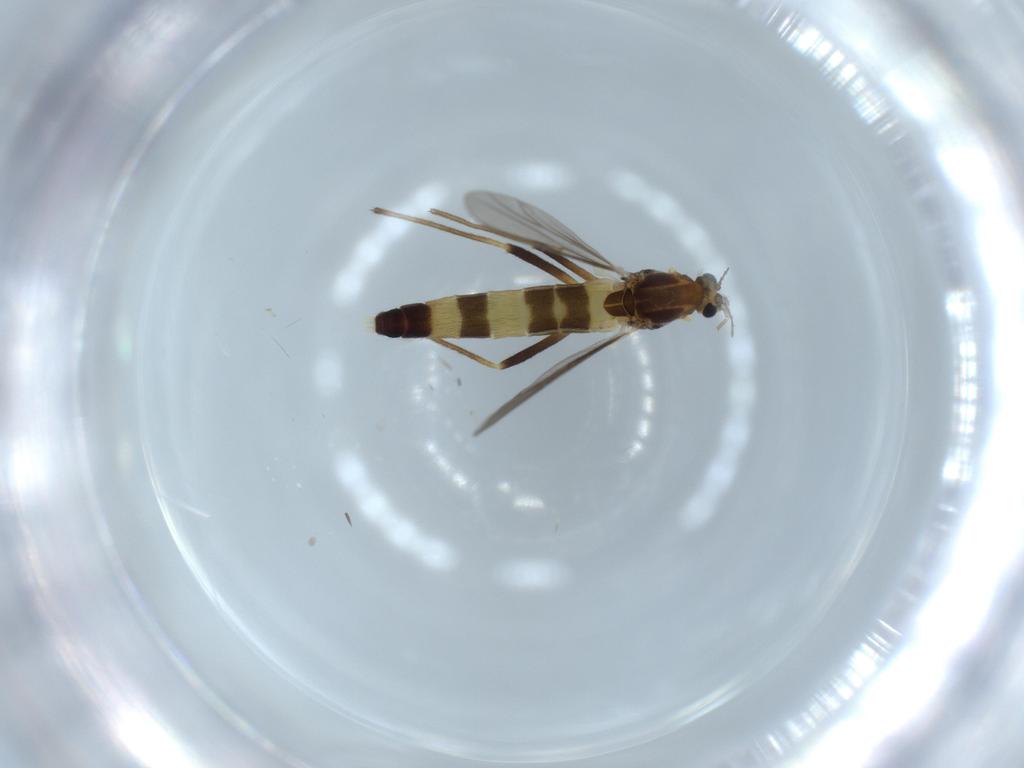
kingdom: Animalia
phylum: Arthropoda
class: Insecta
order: Diptera
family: Chironomidae
